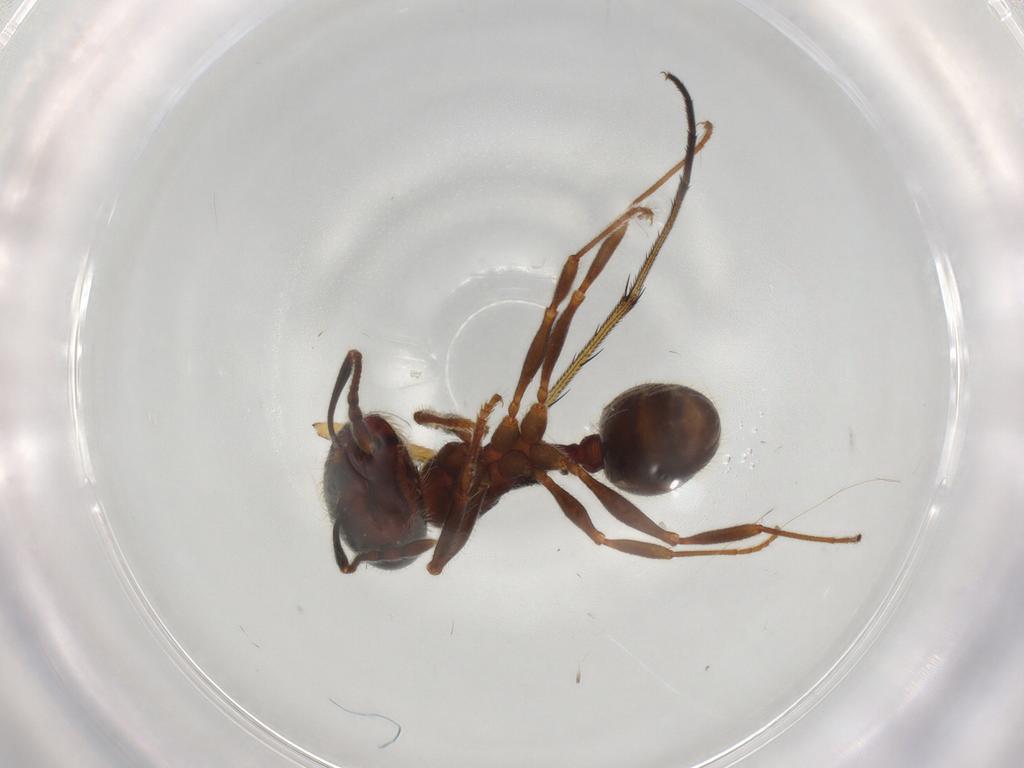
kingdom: Animalia
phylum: Arthropoda
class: Insecta
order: Hymenoptera
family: Formicidae
